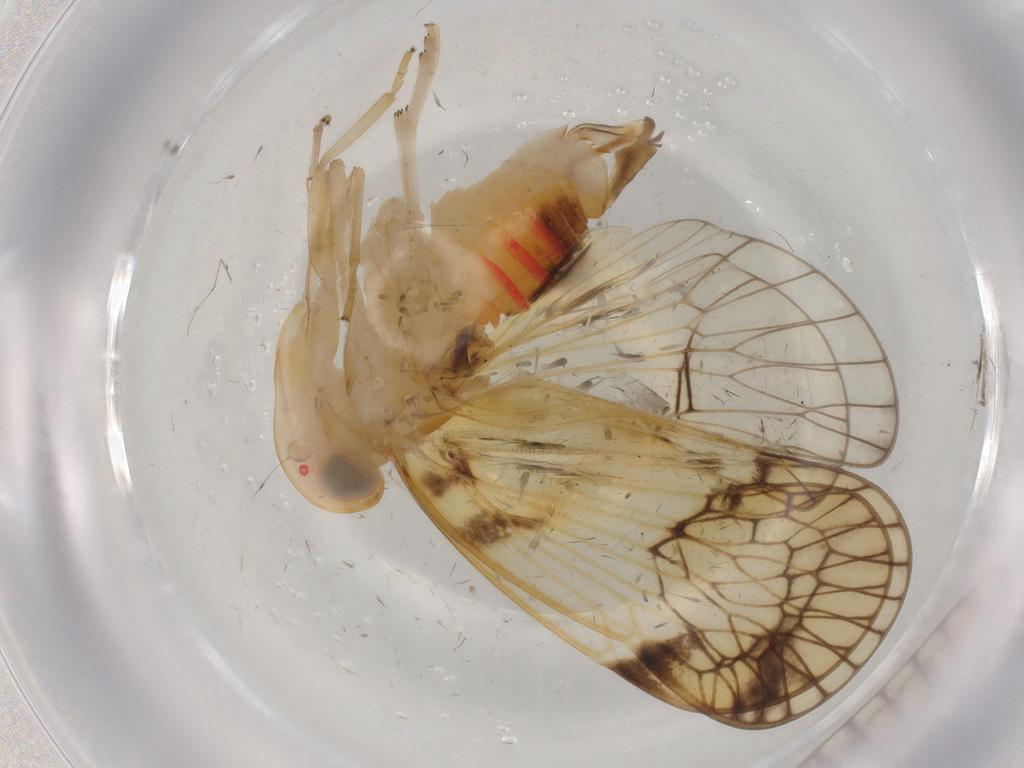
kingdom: Animalia
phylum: Arthropoda
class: Insecta
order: Hemiptera
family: Cixiidae
